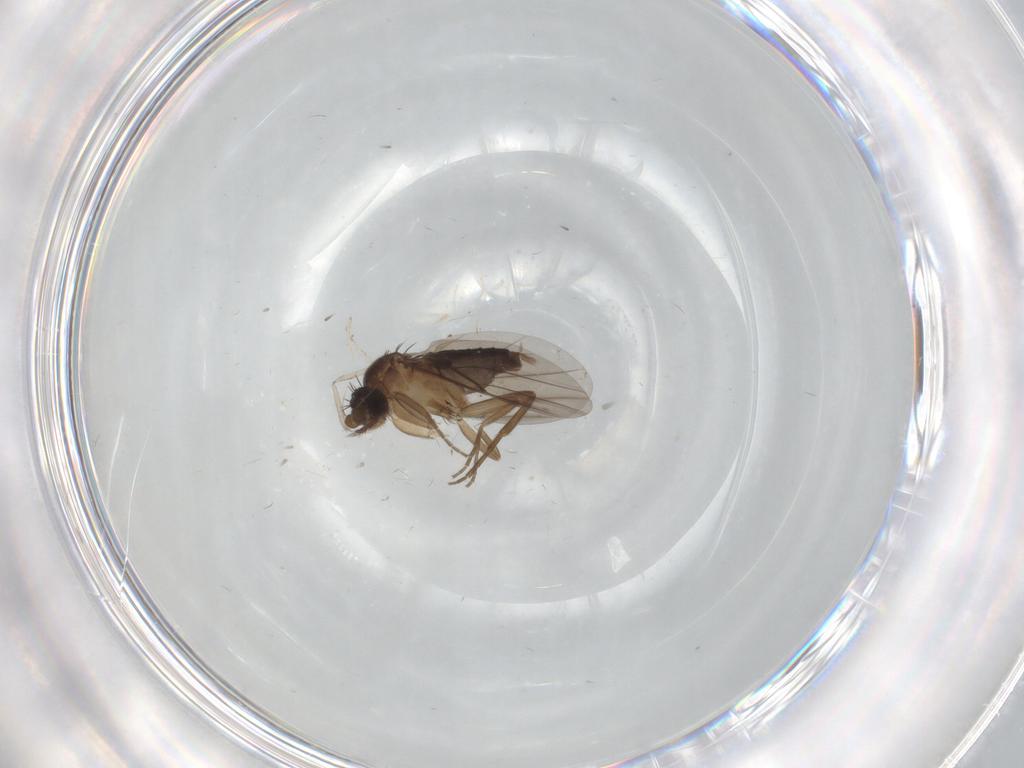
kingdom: Animalia
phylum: Arthropoda
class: Insecta
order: Diptera
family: Cecidomyiidae
